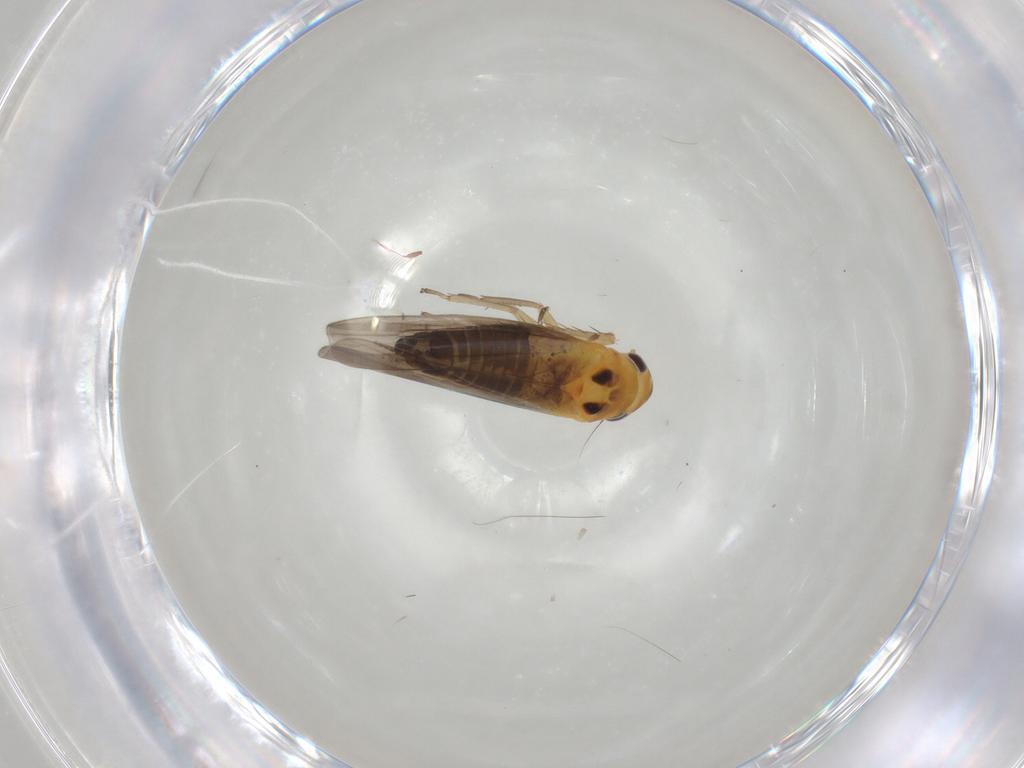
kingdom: Animalia
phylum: Arthropoda
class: Insecta
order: Hemiptera
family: Cicadellidae
